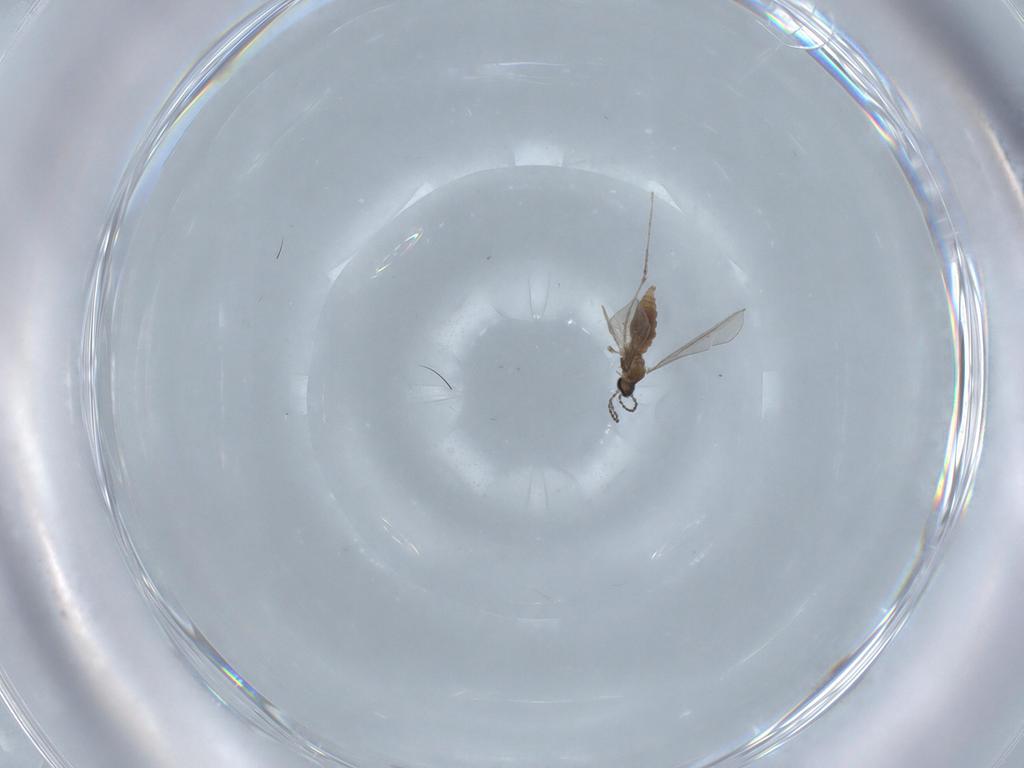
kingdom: Animalia
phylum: Arthropoda
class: Insecta
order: Diptera
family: Cecidomyiidae
